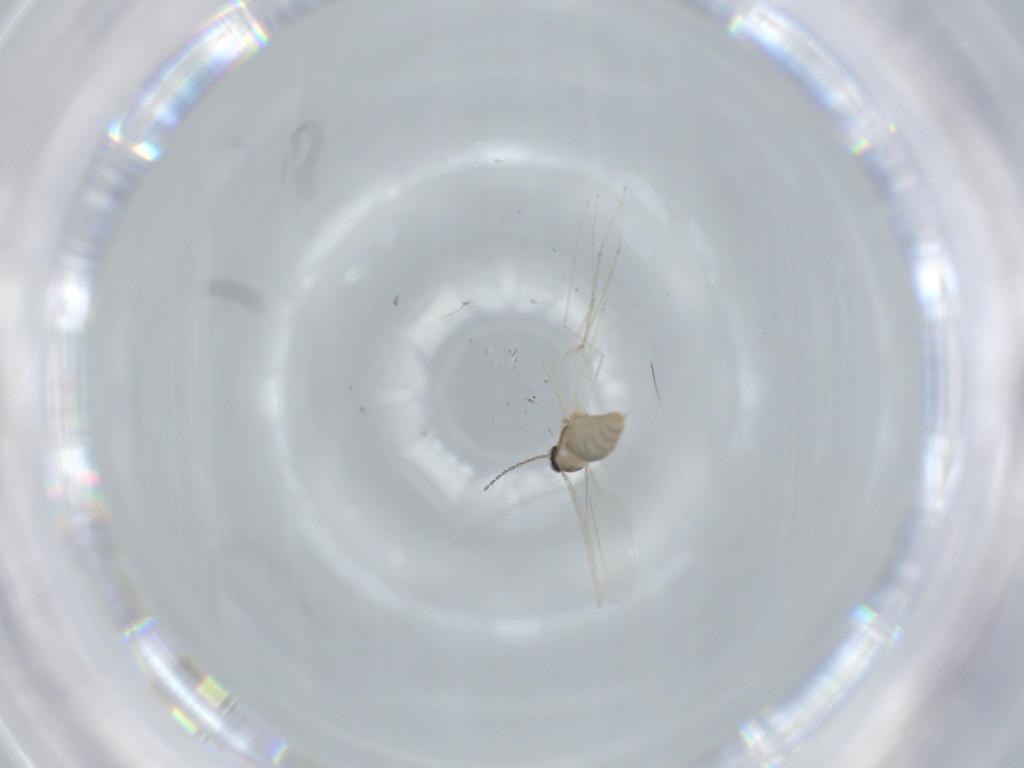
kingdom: Animalia
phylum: Arthropoda
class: Insecta
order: Diptera
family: Cecidomyiidae
